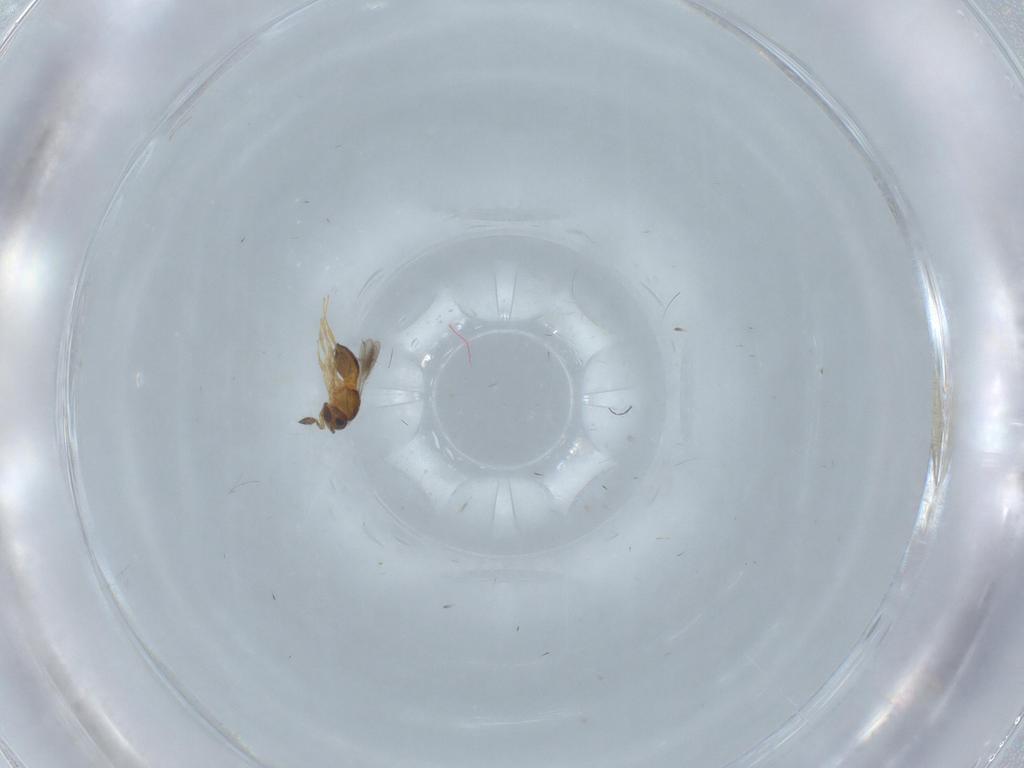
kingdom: Animalia
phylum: Arthropoda
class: Insecta
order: Hymenoptera
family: Scelionidae
